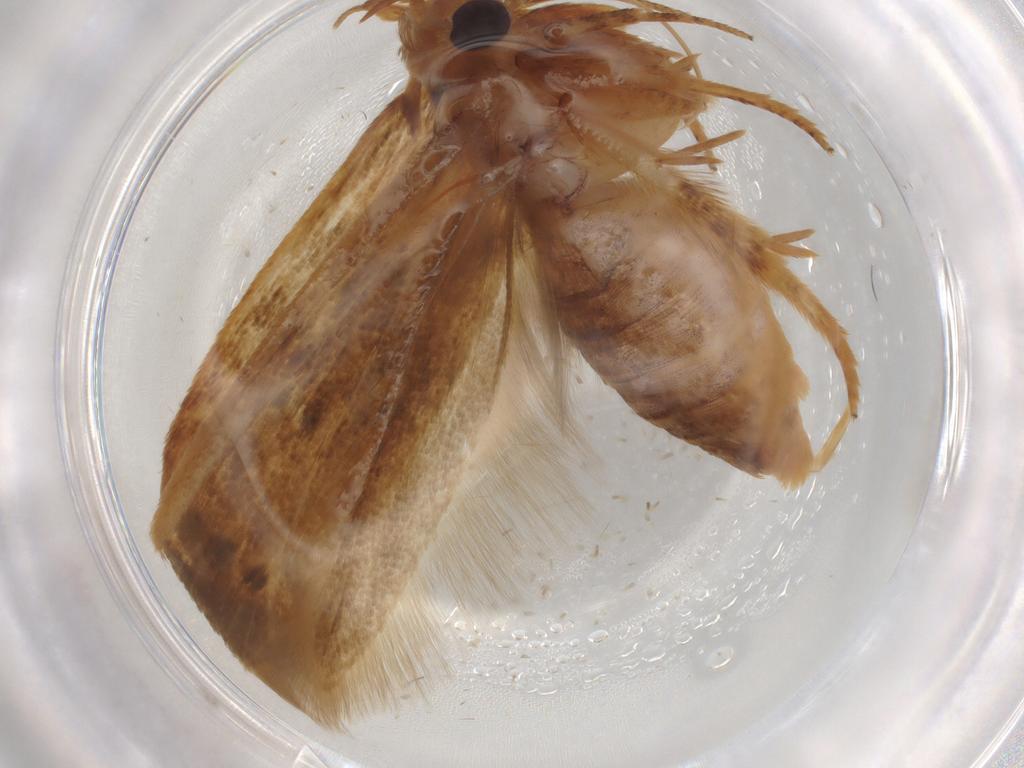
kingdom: Animalia
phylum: Arthropoda
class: Insecta
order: Lepidoptera
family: Blastobasidae
